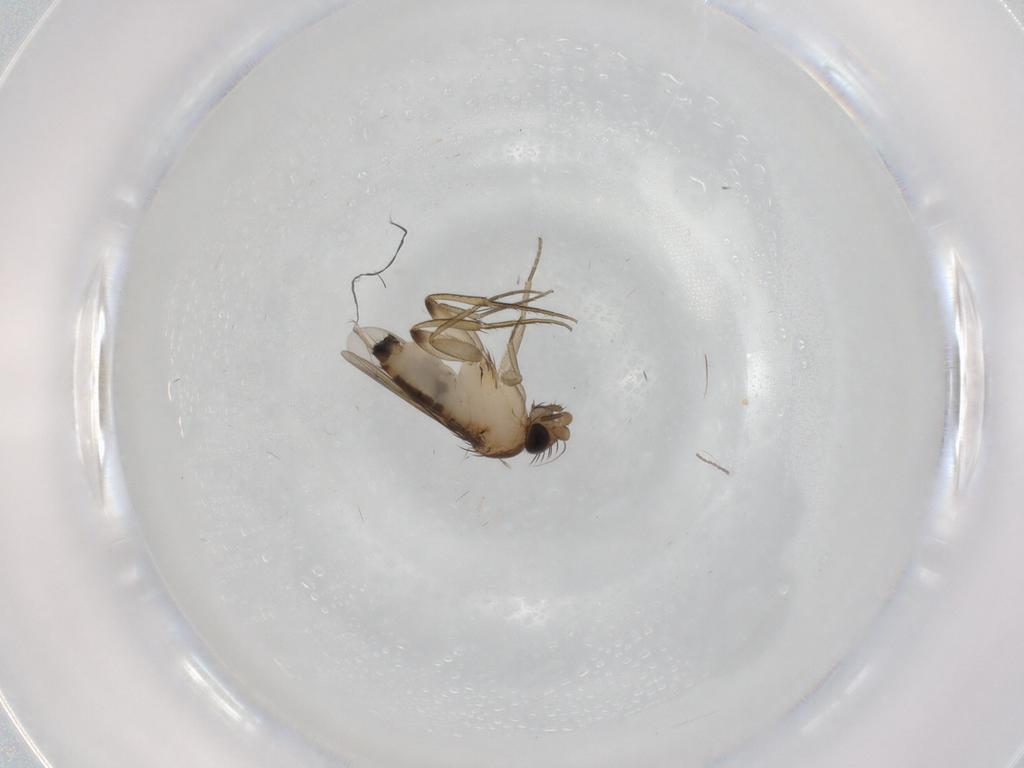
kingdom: Animalia
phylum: Arthropoda
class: Insecta
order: Diptera
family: Phoridae
